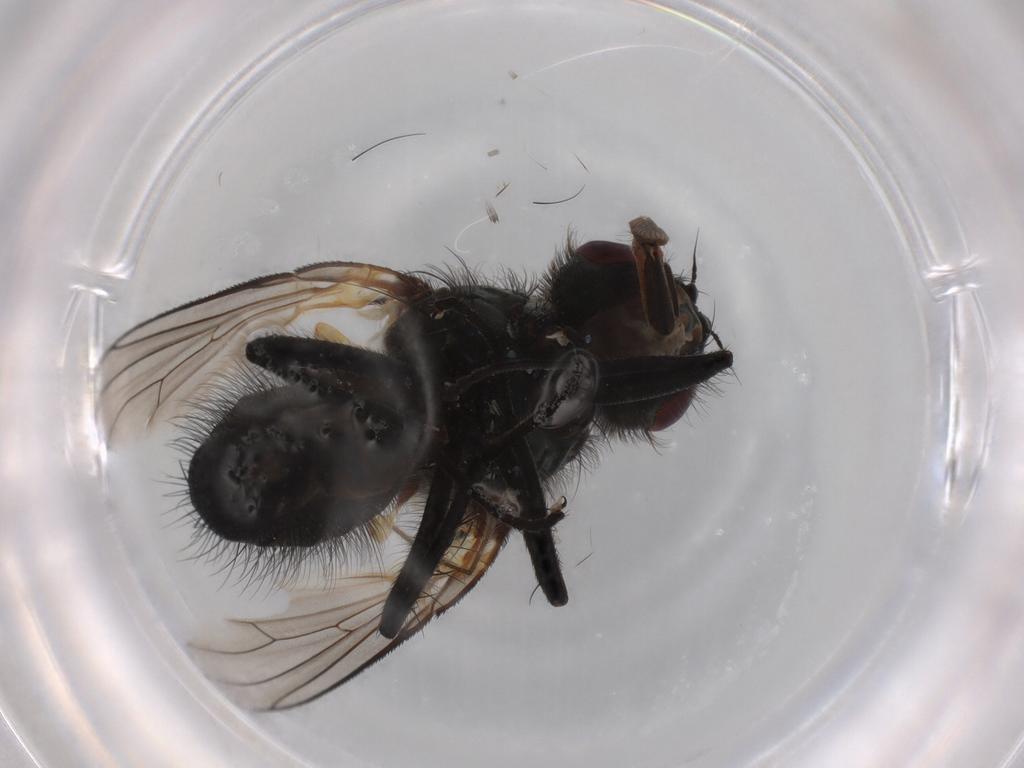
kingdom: Animalia
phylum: Arthropoda
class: Insecta
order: Diptera
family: Anthomyiidae
